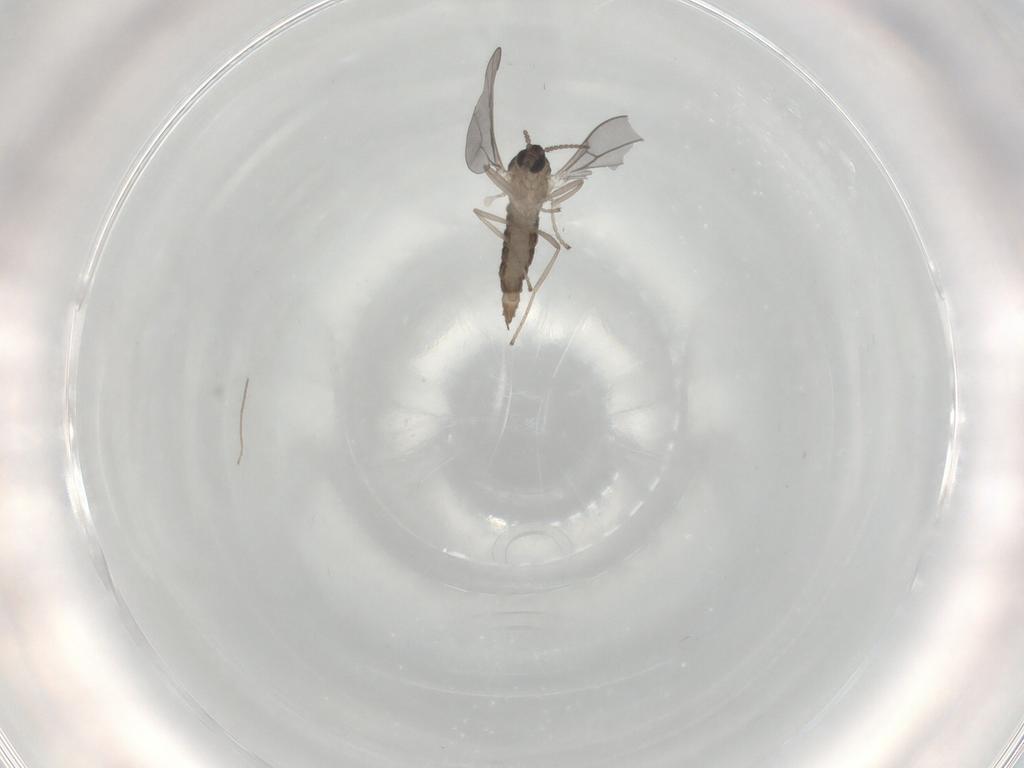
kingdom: Animalia
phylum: Arthropoda
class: Insecta
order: Diptera
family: Cecidomyiidae
